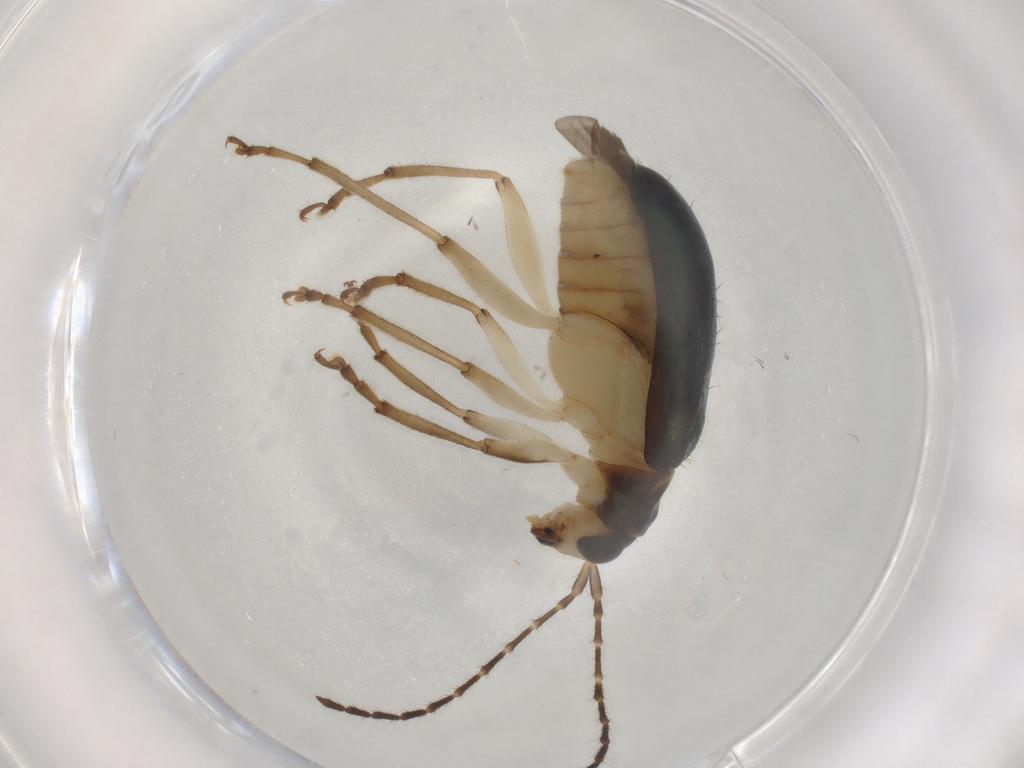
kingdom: Animalia
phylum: Arthropoda
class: Insecta
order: Coleoptera
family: Chrysomelidae
